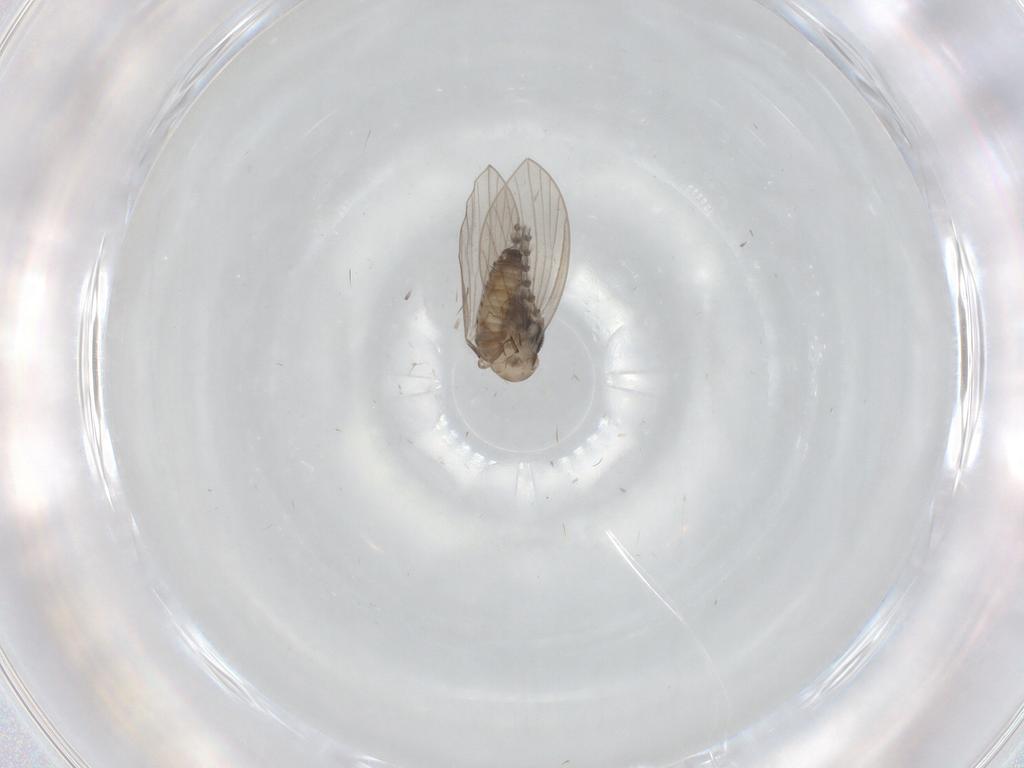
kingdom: Animalia
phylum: Arthropoda
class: Insecta
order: Diptera
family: Psychodidae
